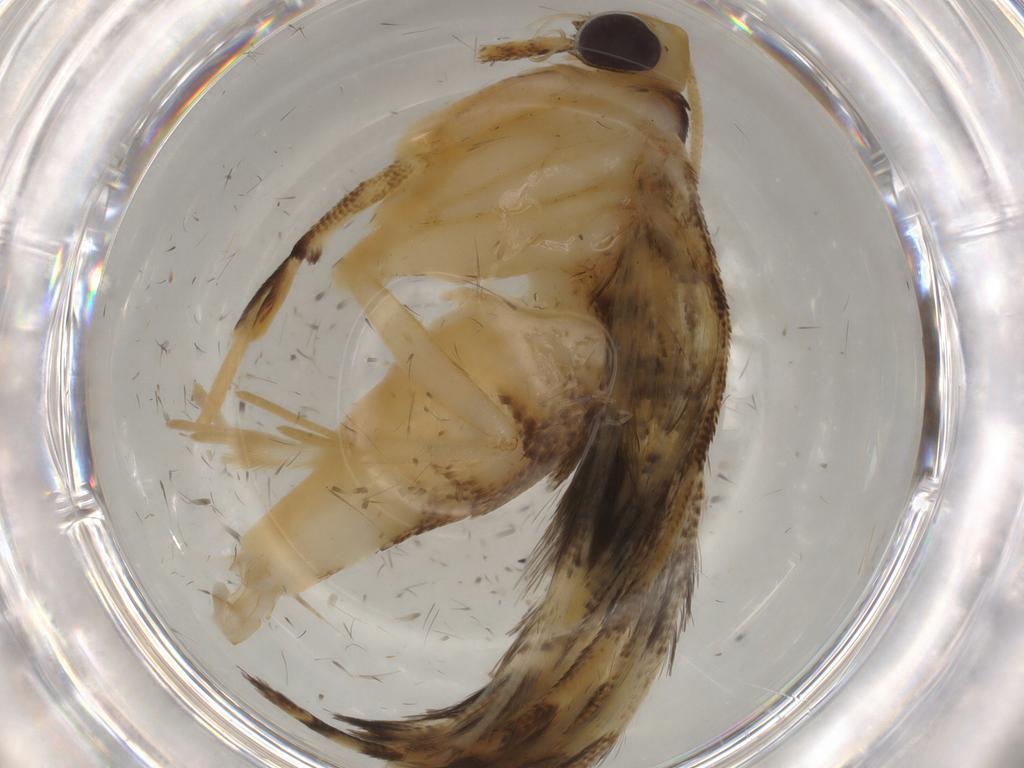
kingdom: Animalia
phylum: Arthropoda
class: Insecta
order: Lepidoptera
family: Gelechiidae
